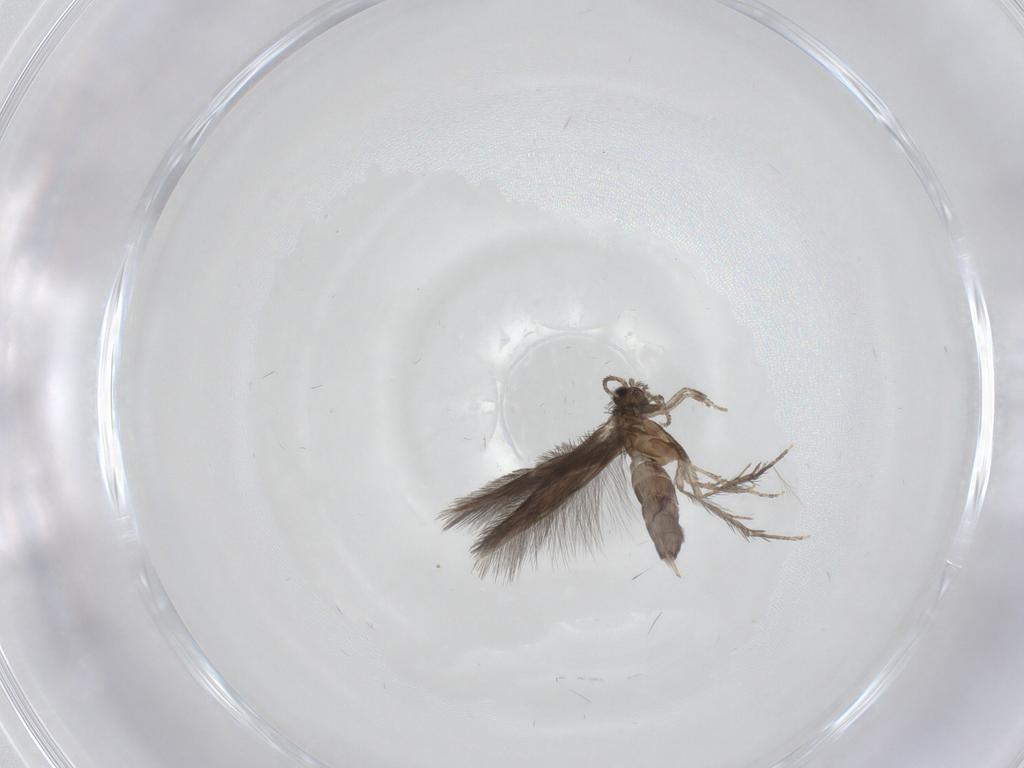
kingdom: Animalia
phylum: Arthropoda
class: Insecta
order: Trichoptera
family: Hydroptilidae
